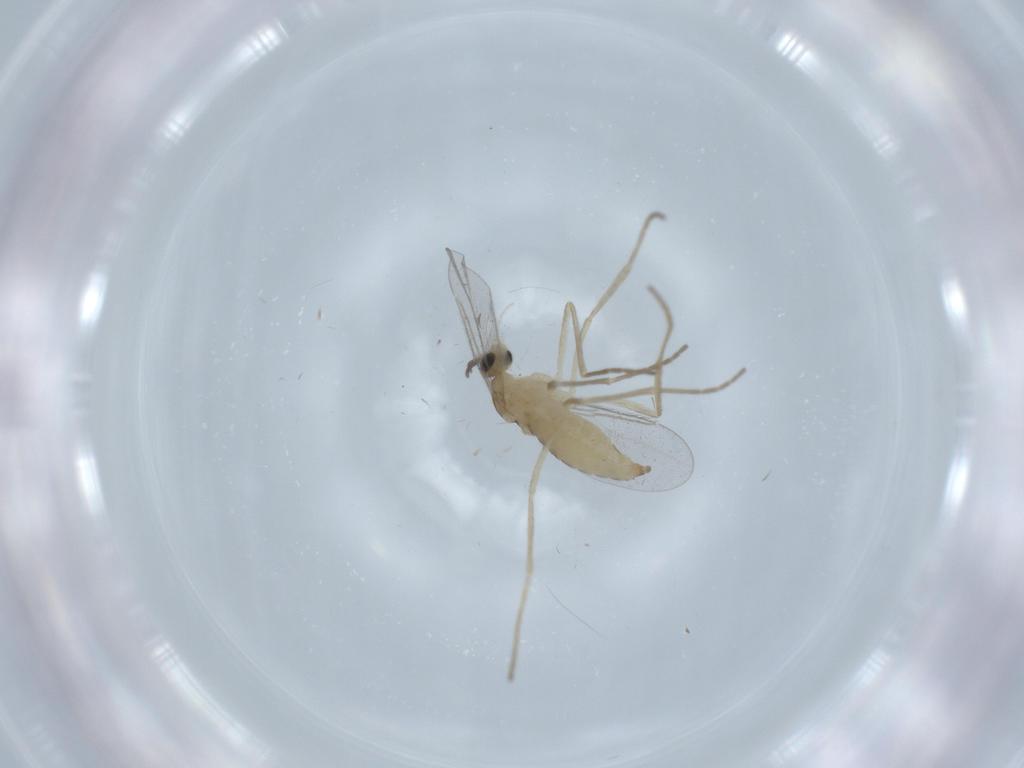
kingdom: Animalia
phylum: Arthropoda
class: Insecta
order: Diptera
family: Cecidomyiidae
